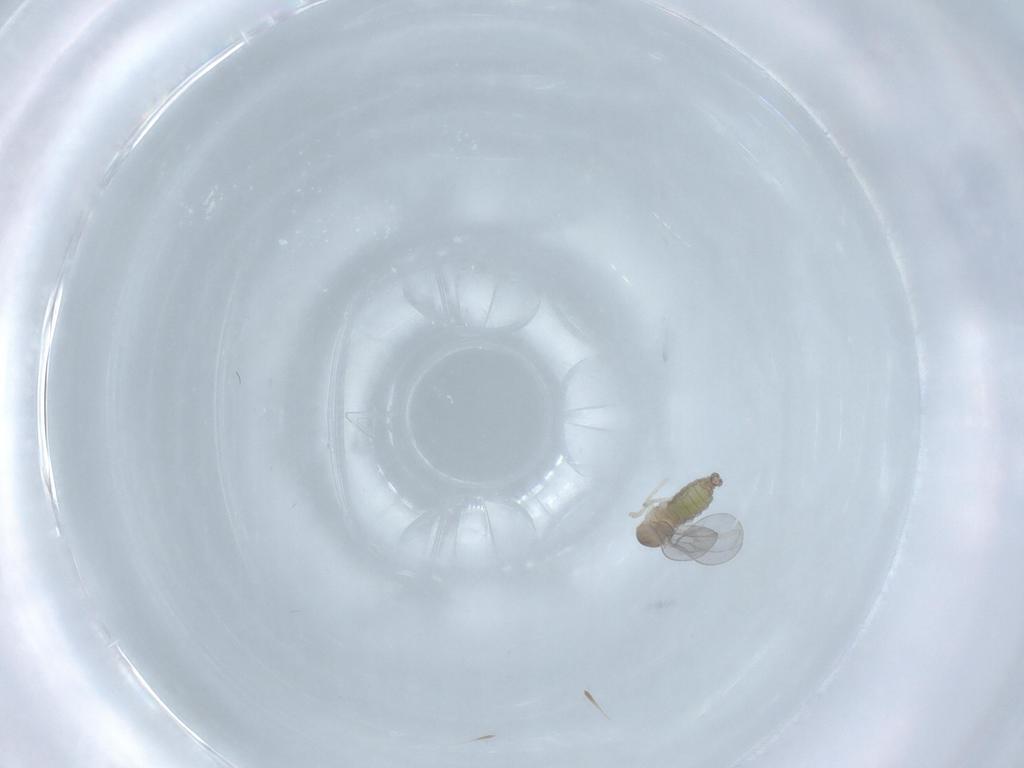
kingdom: Animalia
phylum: Arthropoda
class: Insecta
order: Diptera
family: Cecidomyiidae
